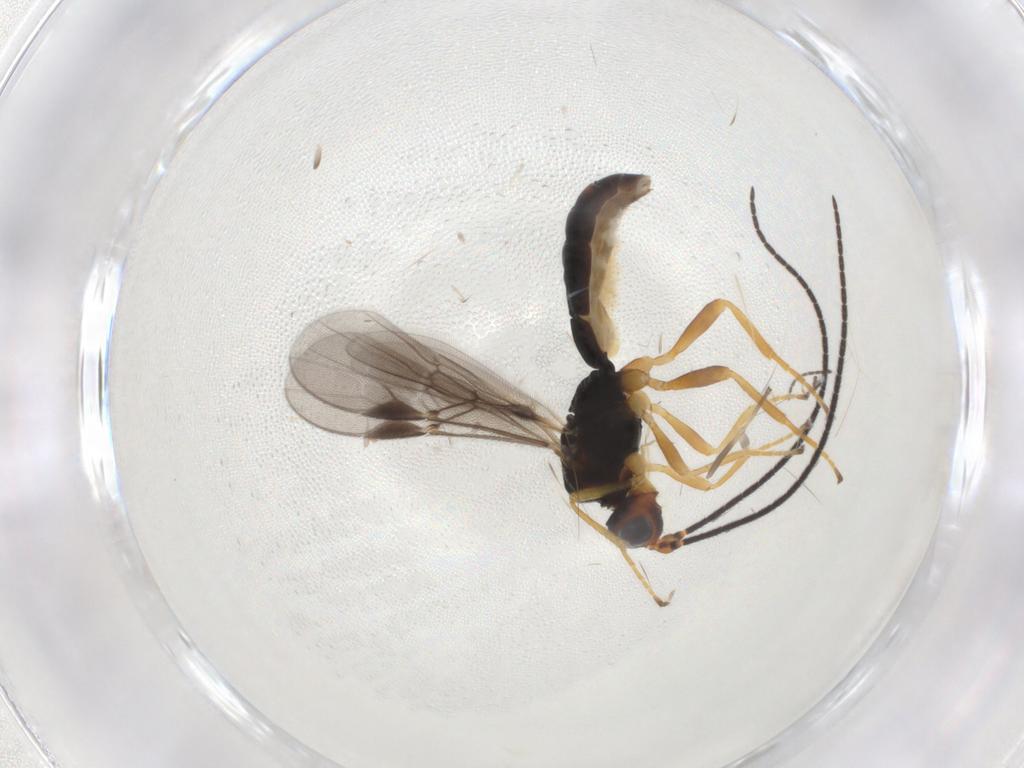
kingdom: Animalia
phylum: Arthropoda
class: Insecta
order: Hymenoptera
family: Braconidae
